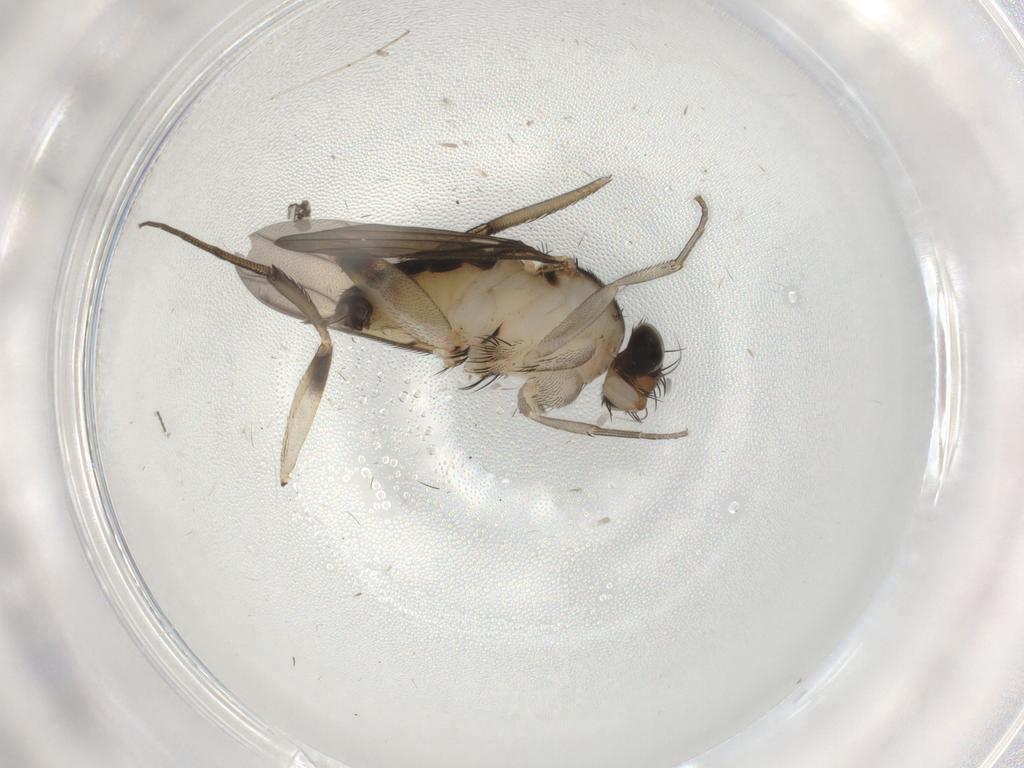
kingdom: Animalia
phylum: Arthropoda
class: Insecta
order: Diptera
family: Phoridae
